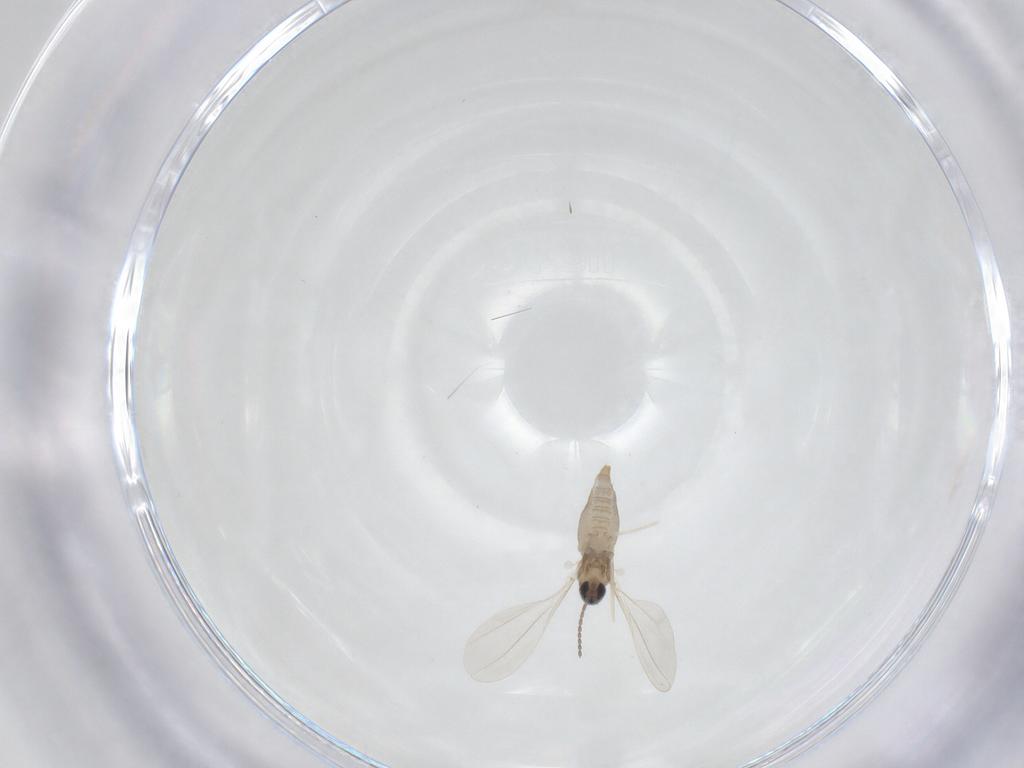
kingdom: Animalia
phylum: Arthropoda
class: Insecta
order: Diptera
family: Cecidomyiidae
